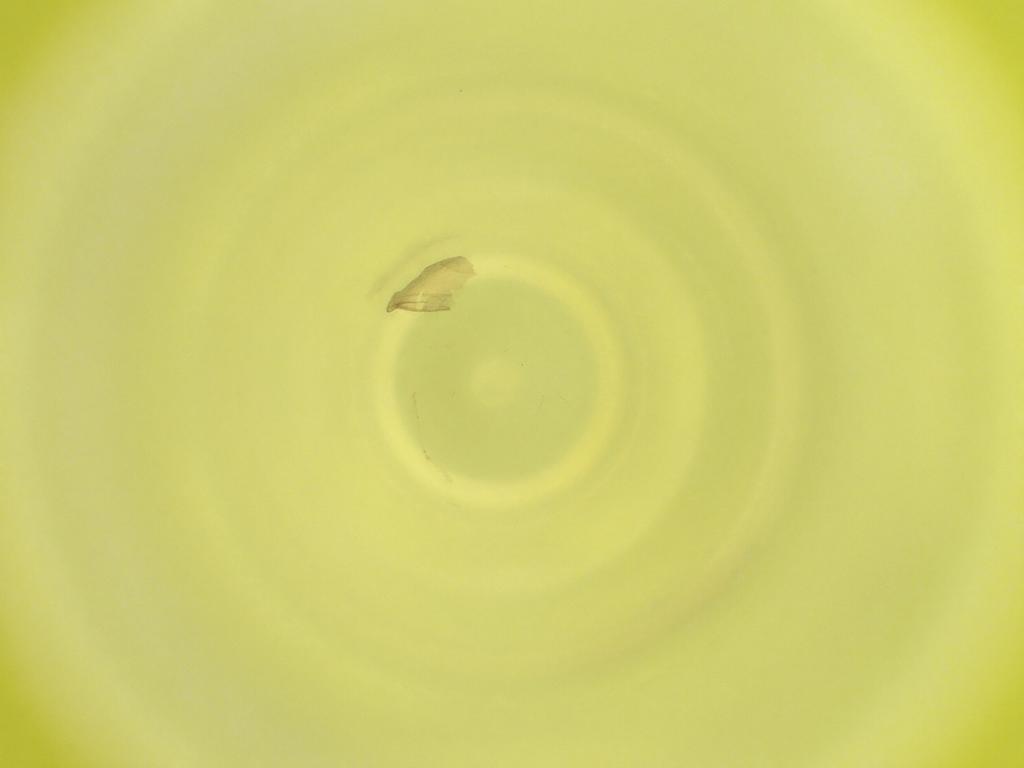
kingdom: Animalia
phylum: Arthropoda
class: Insecta
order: Diptera
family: Cecidomyiidae
